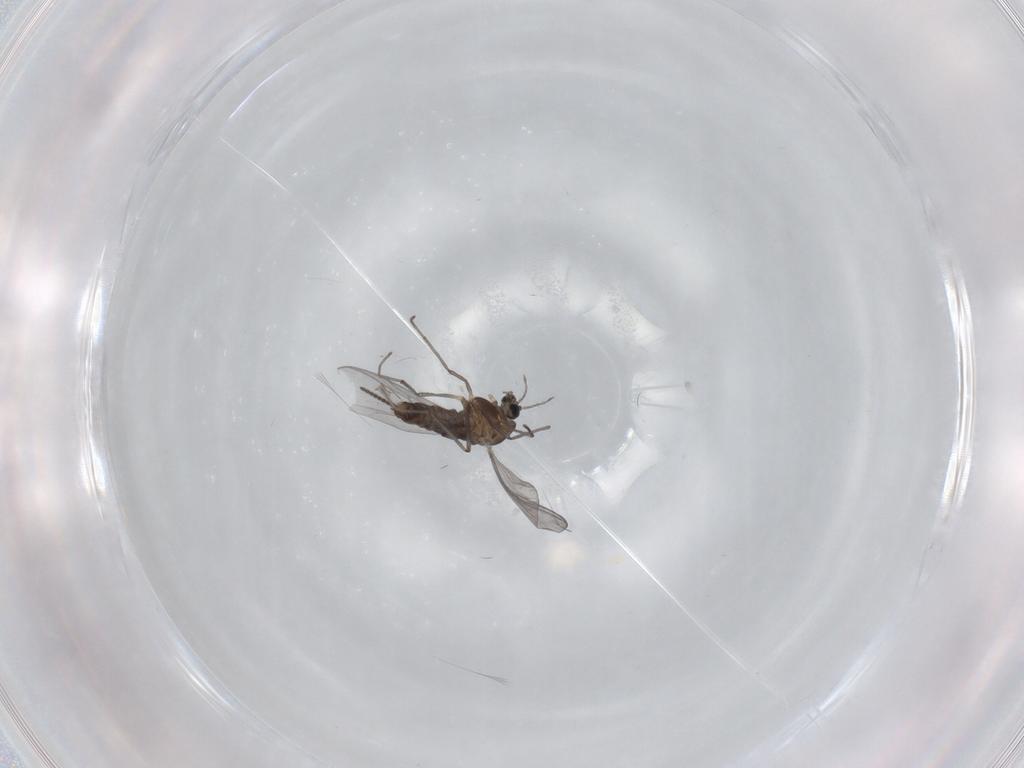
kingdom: Animalia
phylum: Arthropoda
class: Insecta
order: Diptera
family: Chironomidae
